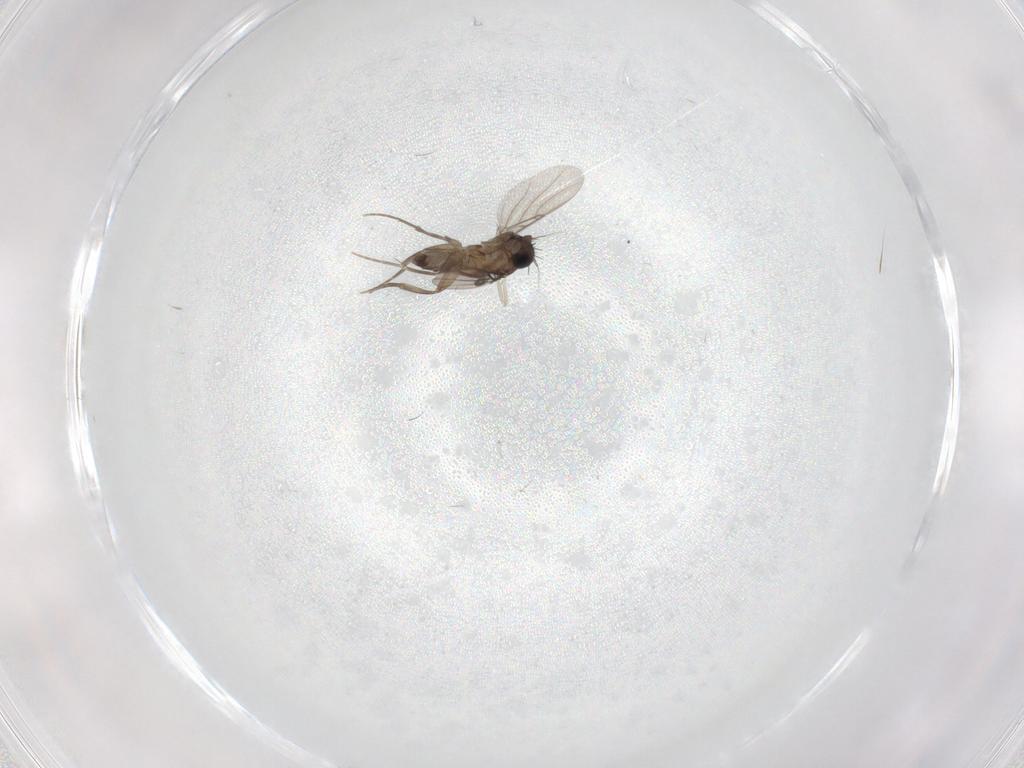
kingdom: Animalia
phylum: Arthropoda
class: Insecta
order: Diptera
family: Phoridae
